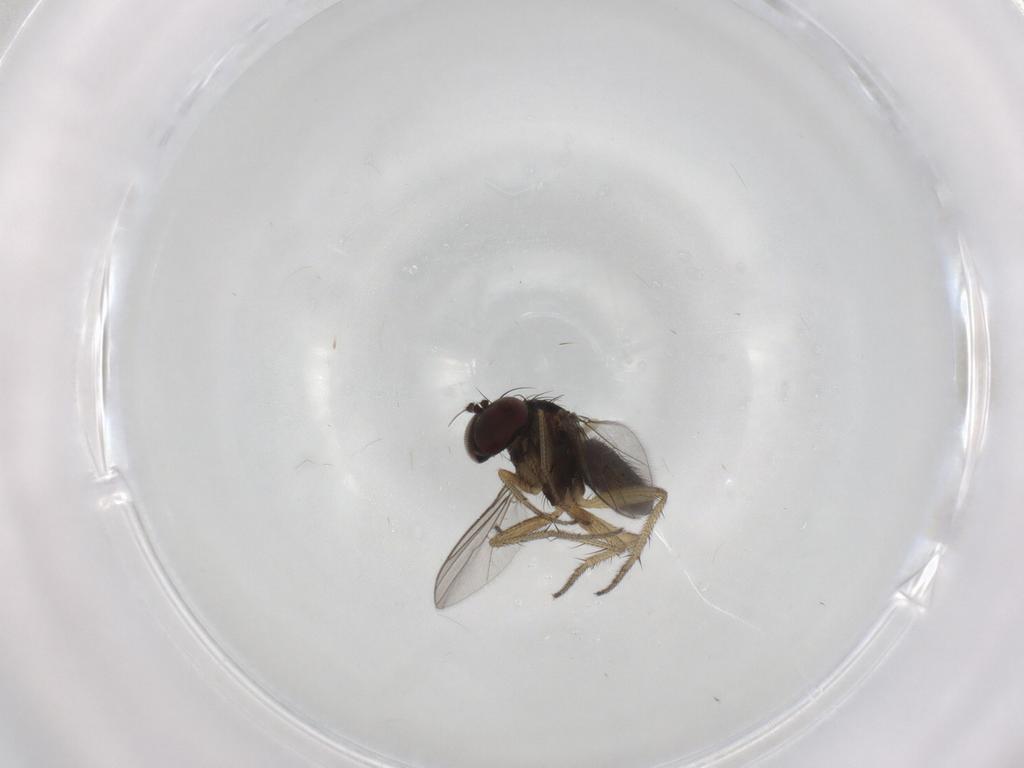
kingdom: Animalia
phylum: Arthropoda
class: Insecta
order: Diptera
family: Dolichopodidae
